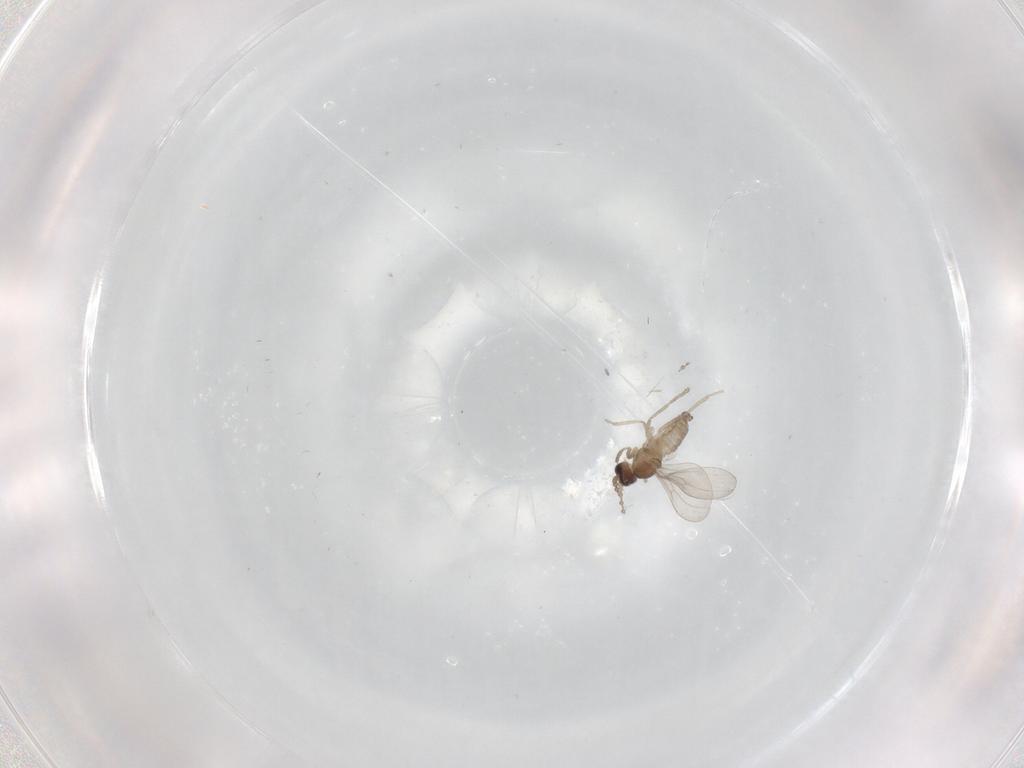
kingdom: Animalia
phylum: Arthropoda
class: Insecta
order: Diptera
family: Cecidomyiidae
